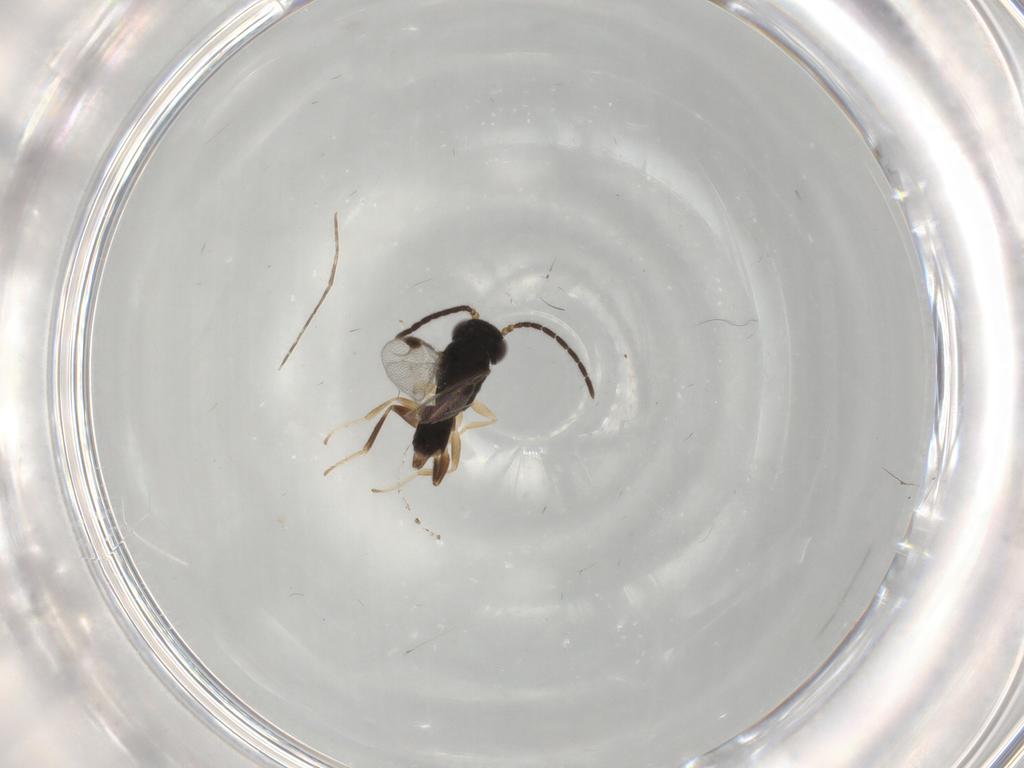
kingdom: Animalia
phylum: Arthropoda
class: Insecta
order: Hymenoptera
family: Dryinidae
